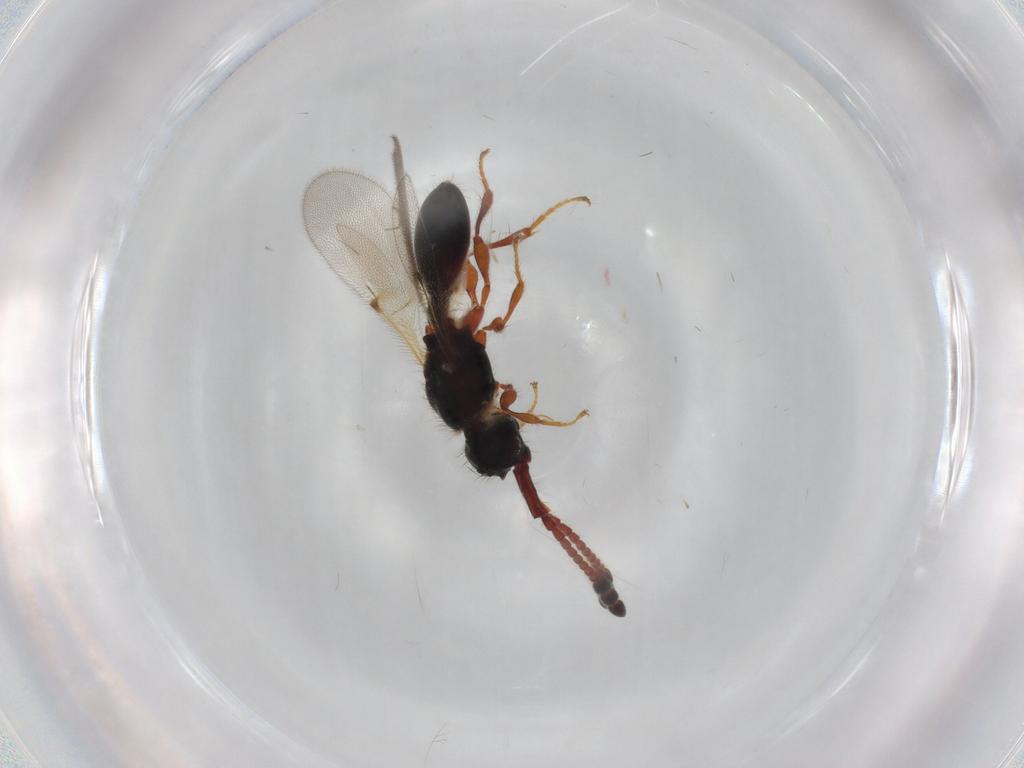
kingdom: Animalia
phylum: Arthropoda
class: Insecta
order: Hymenoptera
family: Diapriidae
